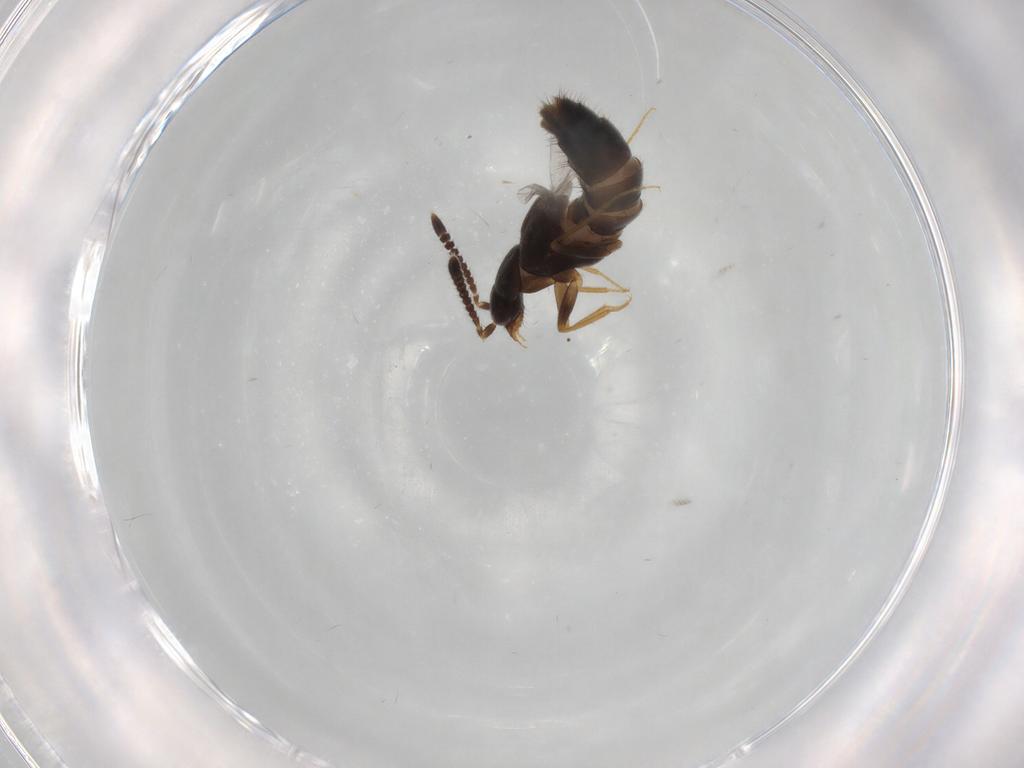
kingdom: Animalia
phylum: Arthropoda
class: Insecta
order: Coleoptera
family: Staphylinidae
